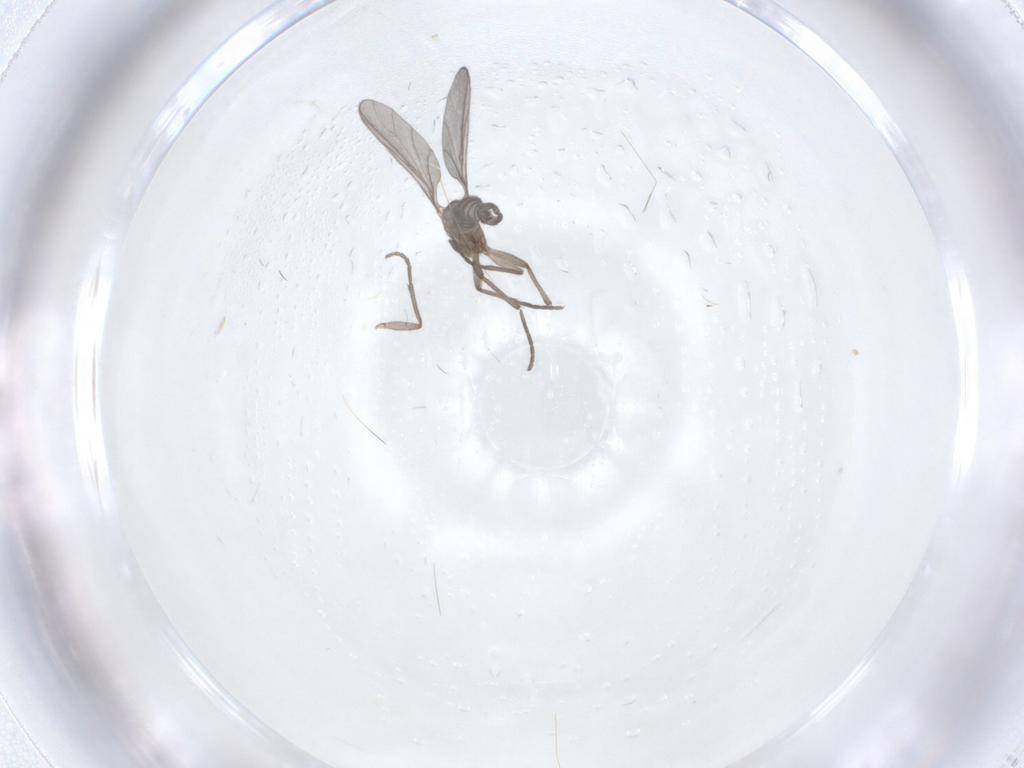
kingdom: Animalia
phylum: Arthropoda
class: Insecta
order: Diptera
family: Sciaridae
